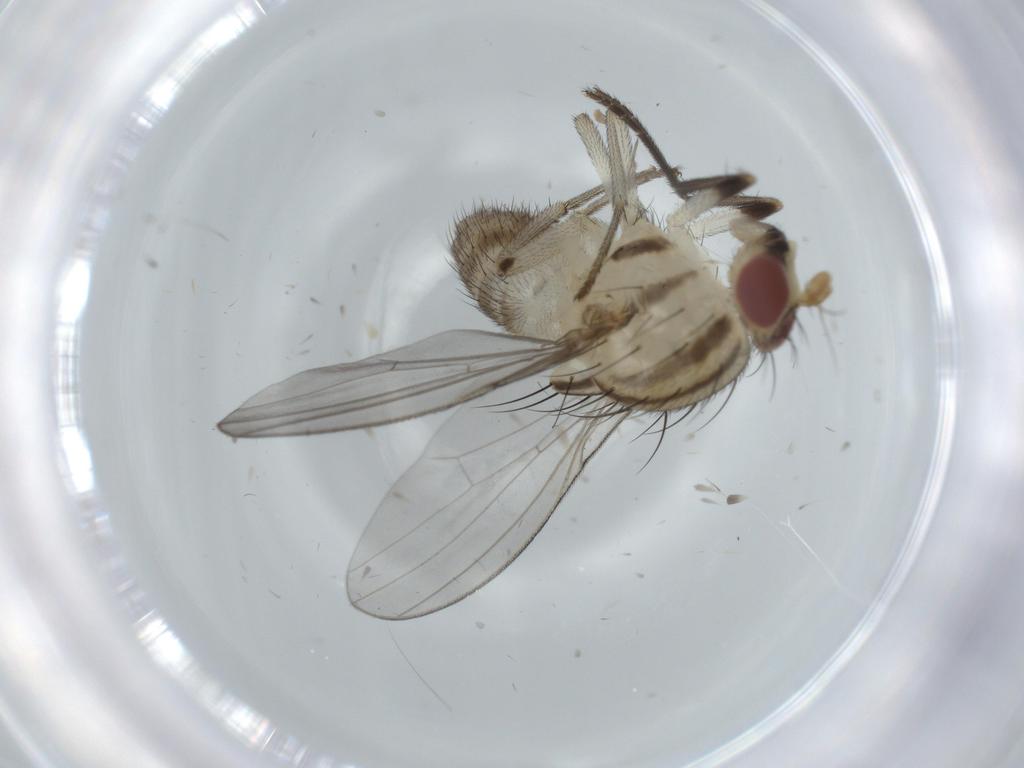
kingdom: Animalia
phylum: Arthropoda
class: Insecta
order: Diptera
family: Lauxaniidae
